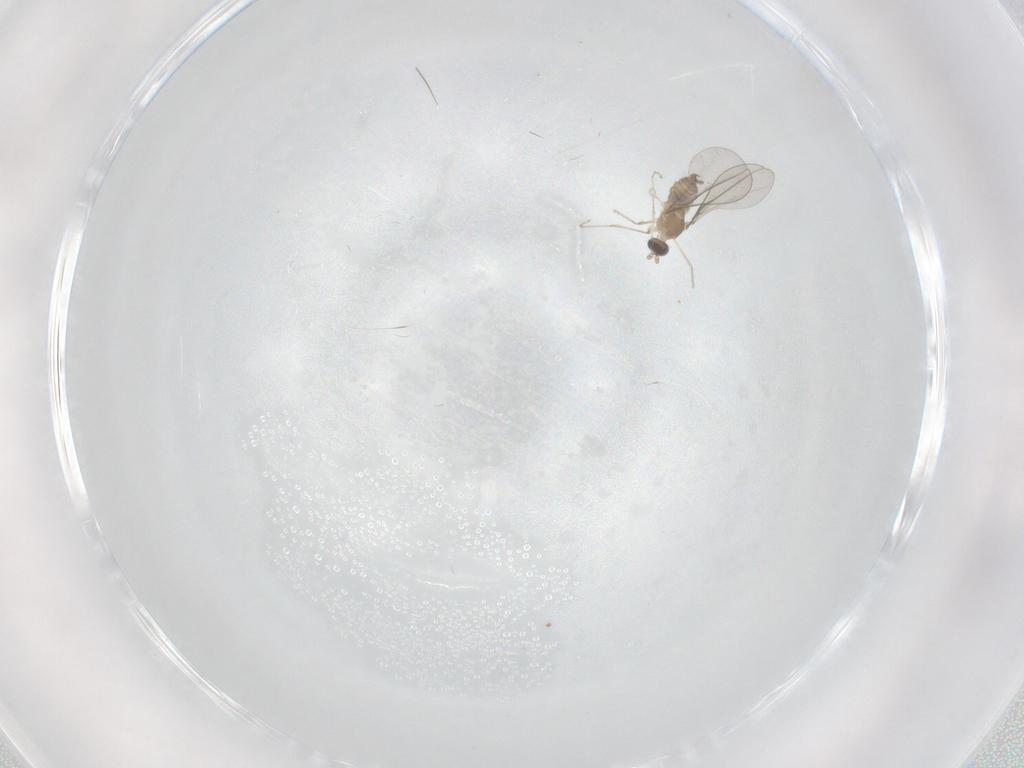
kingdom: Animalia
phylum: Arthropoda
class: Insecta
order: Diptera
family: Cecidomyiidae
